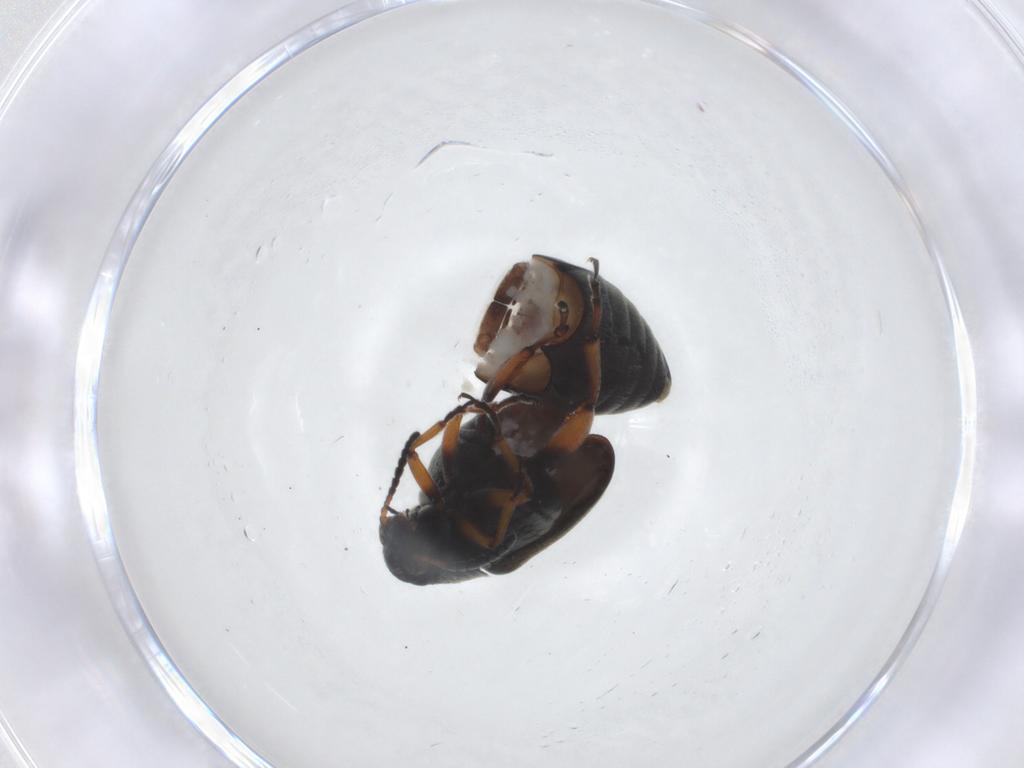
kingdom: Animalia
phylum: Arthropoda
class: Insecta
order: Coleoptera
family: Chrysomelidae
